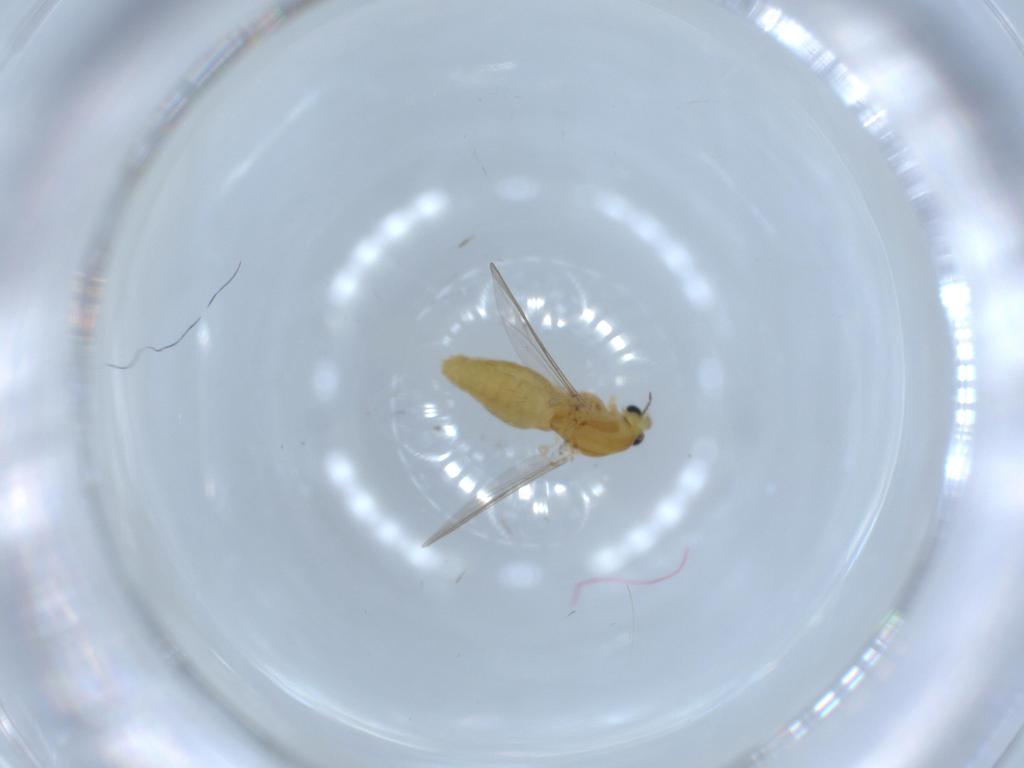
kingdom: Animalia
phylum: Arthropoda
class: Insecta
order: Diptera
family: Chironomidae
